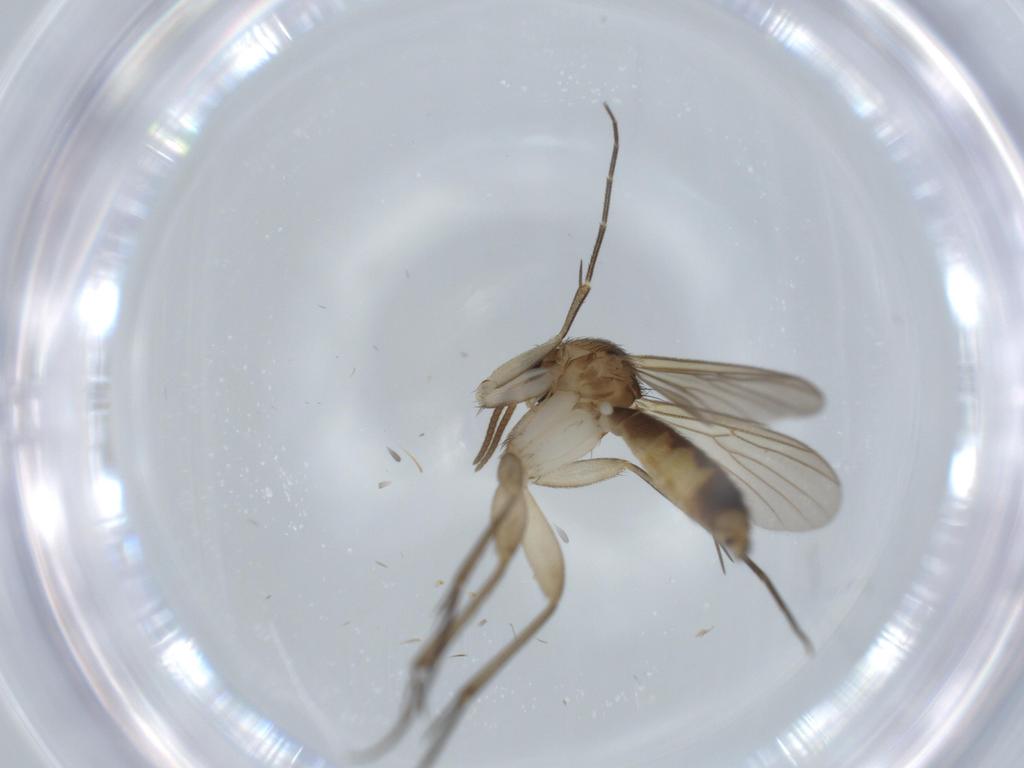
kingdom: Animalia
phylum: Arthropoda
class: Insecta
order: Diptera
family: Mycetophilidae
